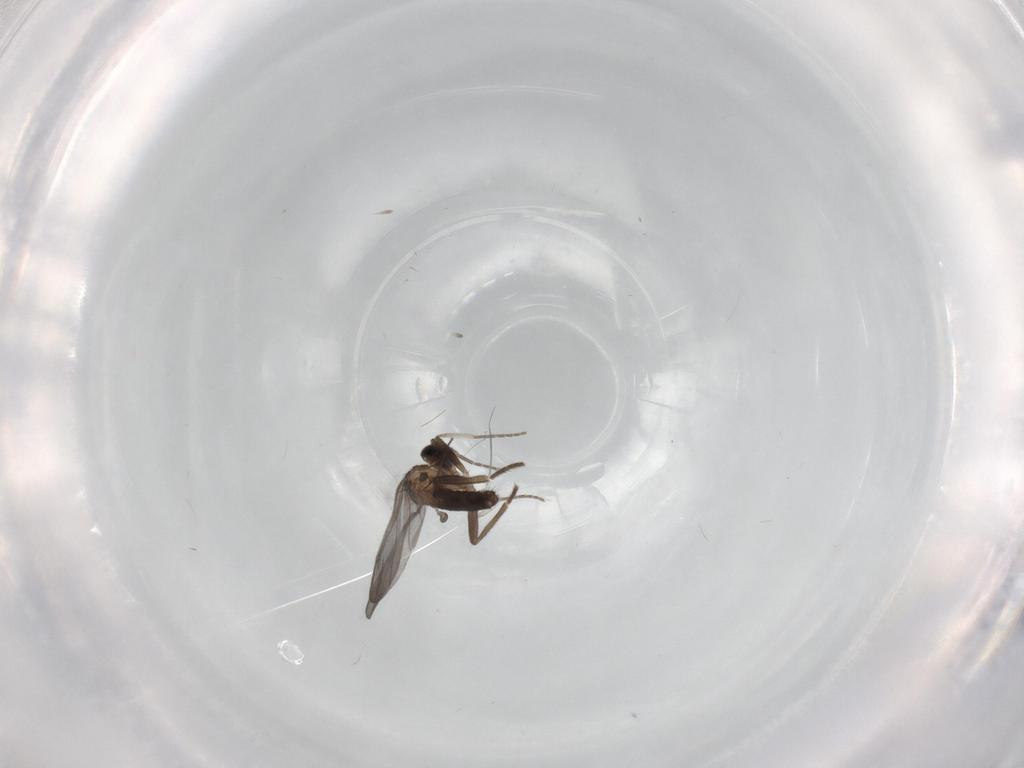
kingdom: Animalia
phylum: Arthropoda
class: Insecta
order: Diptera
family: Phoridae
